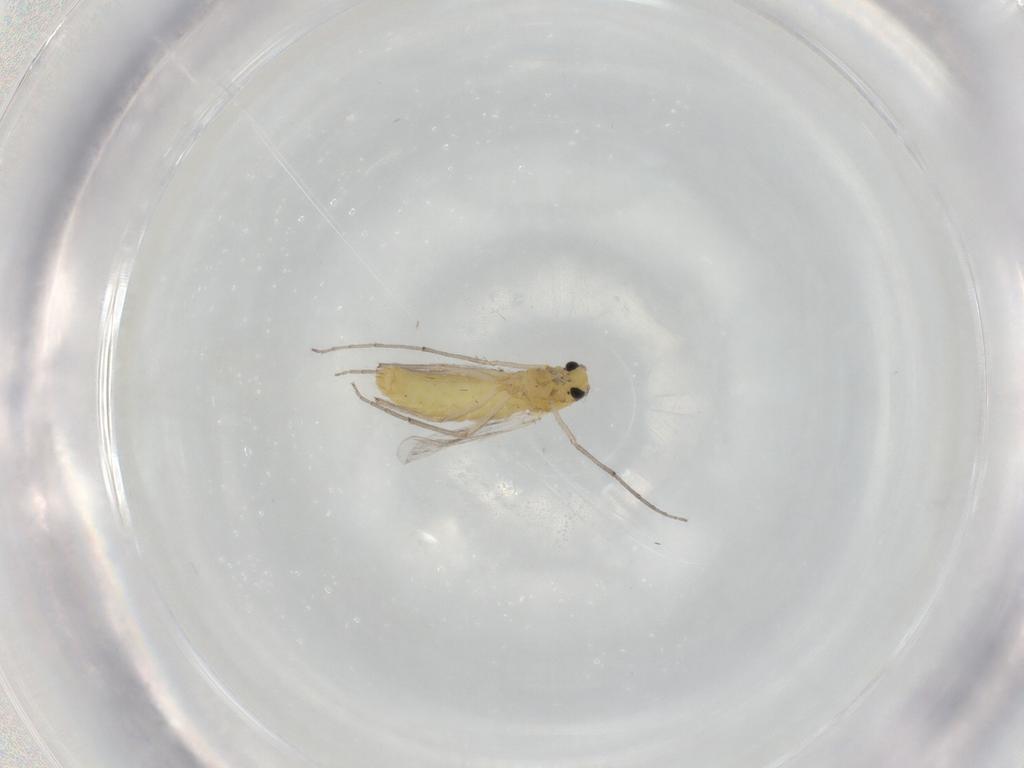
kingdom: Animalia
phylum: Arthropoda
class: Insecta
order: Diptera
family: Chironomidae
